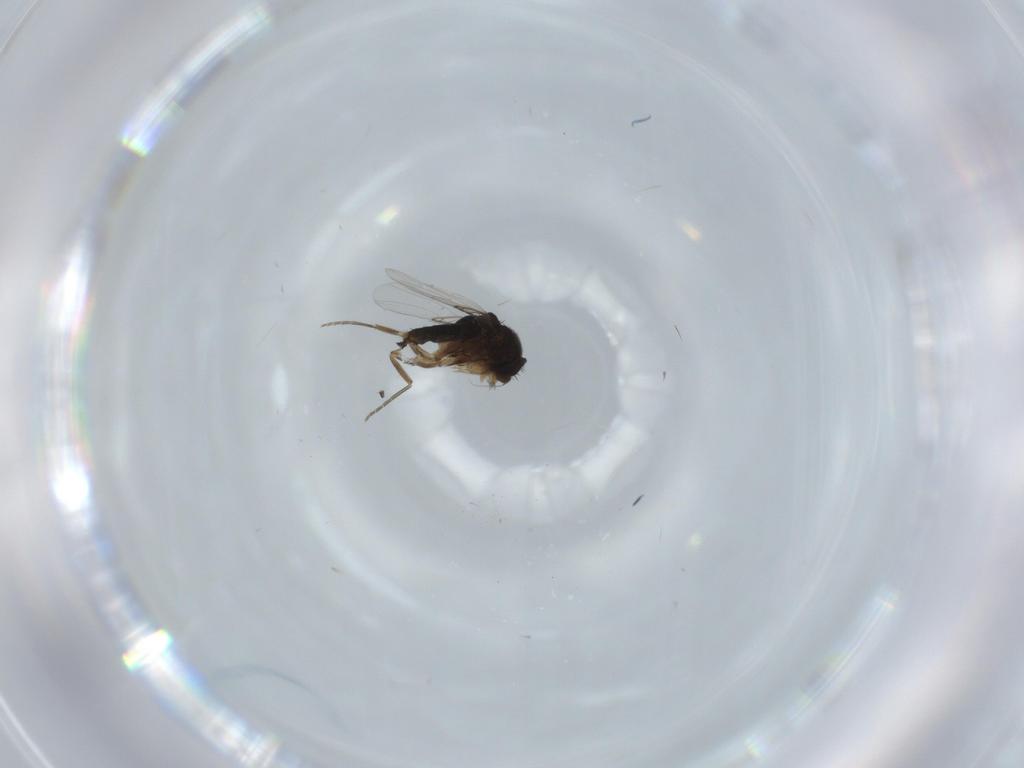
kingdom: Animalia
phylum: Arthropoda
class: Insecta
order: Diptera
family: Phoridae
